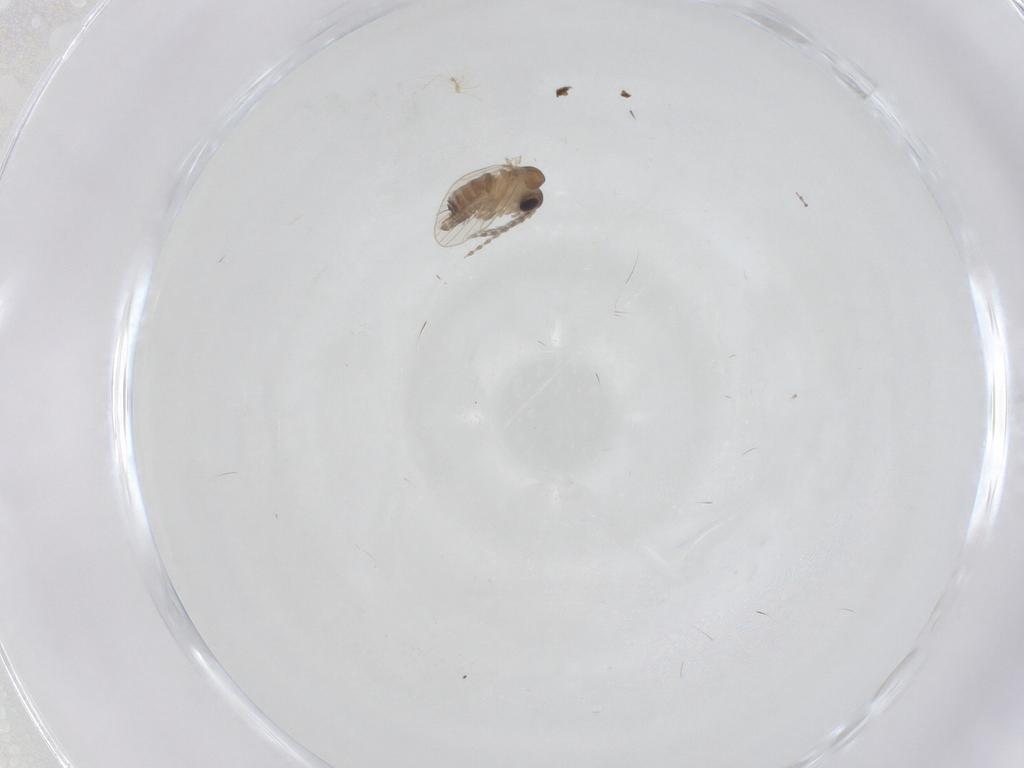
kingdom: Animalia
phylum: Arthropoda
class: Insecta
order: Diptera
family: Psychodidae
